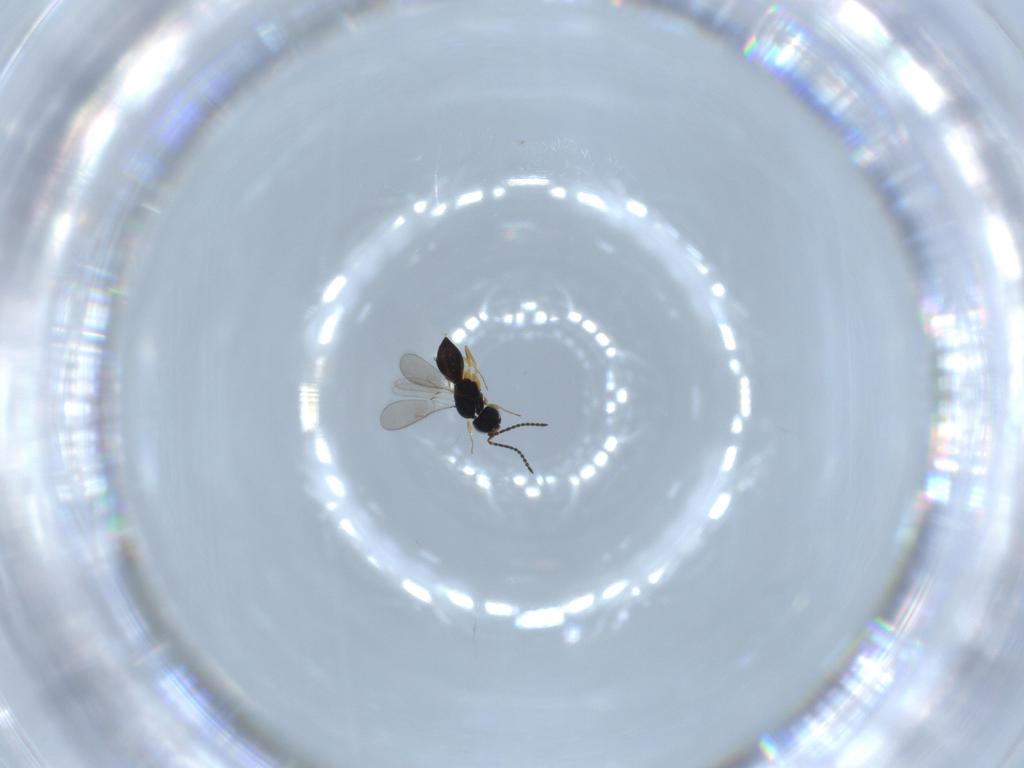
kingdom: Animalia
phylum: Arthropoda
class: Insecta
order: Hymenoptera
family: Scelionidae
